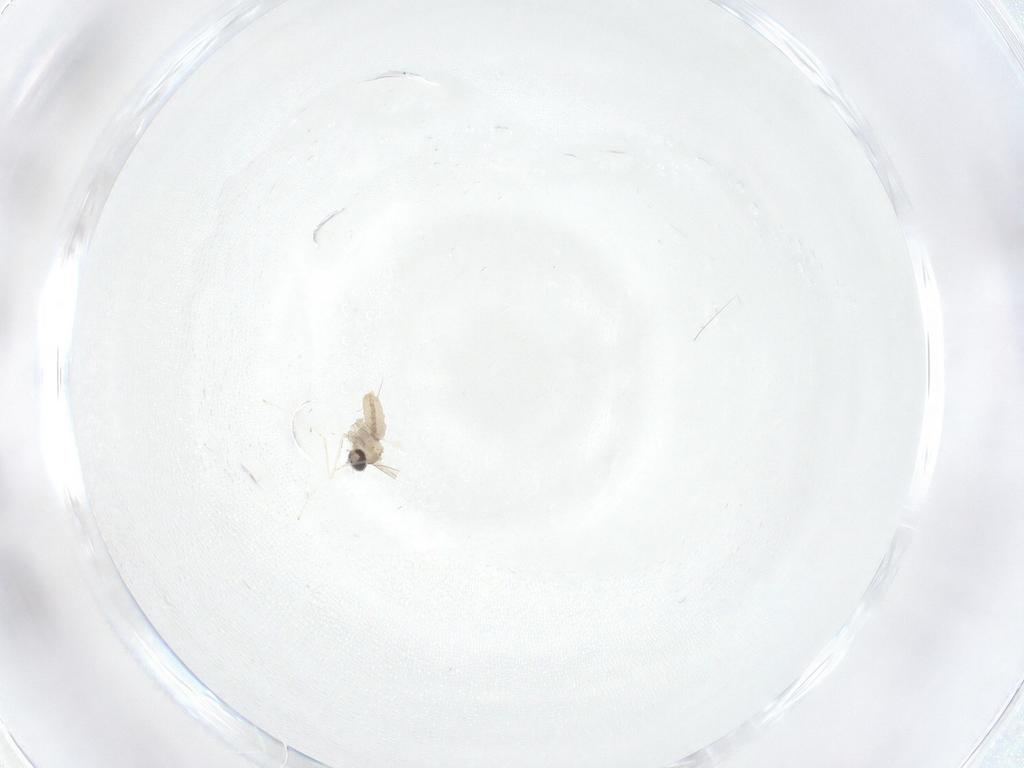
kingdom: Animalia
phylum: Arthropoda
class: Insecta
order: Diptera
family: Cecidomyiidae
